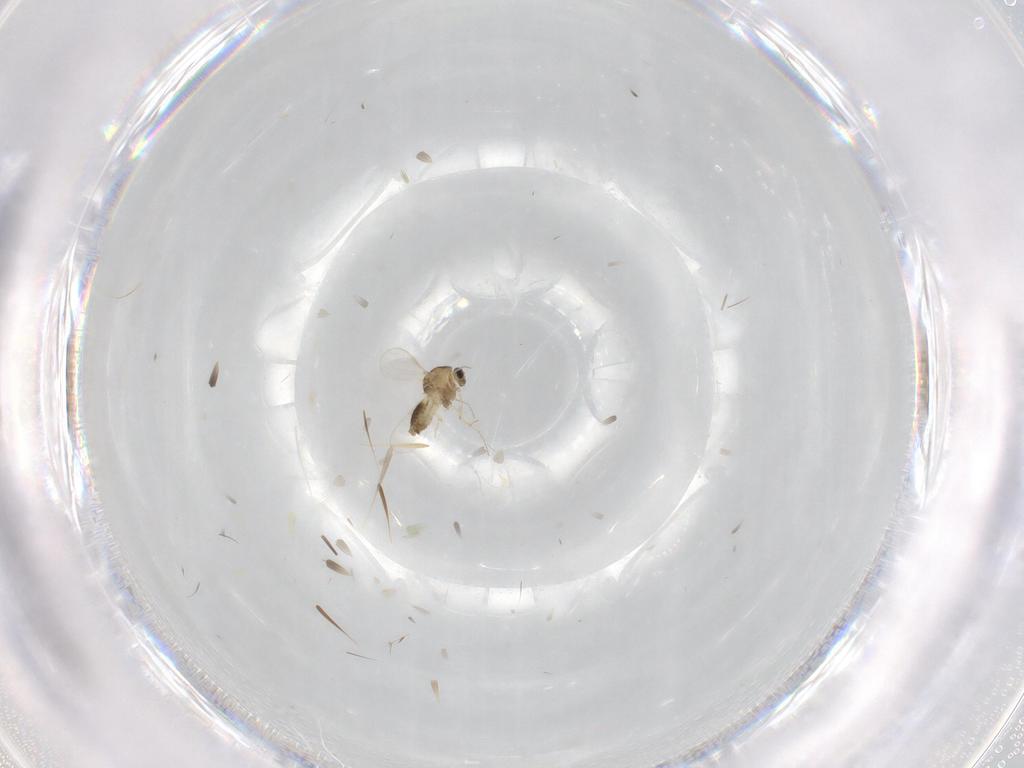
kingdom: Animalia
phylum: Arthropoda
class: Insecta
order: Diptera
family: Chironomidae
